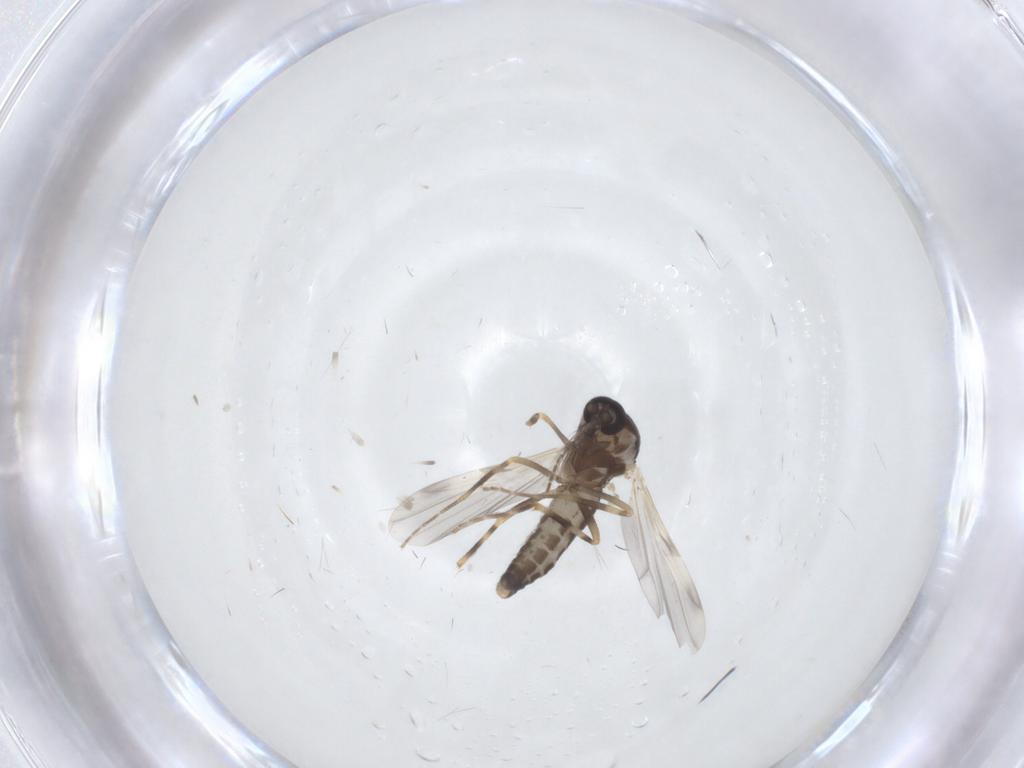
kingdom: Animalia
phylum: Arthropoda
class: Insecta
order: Diptera
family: Ceratopogonidae
